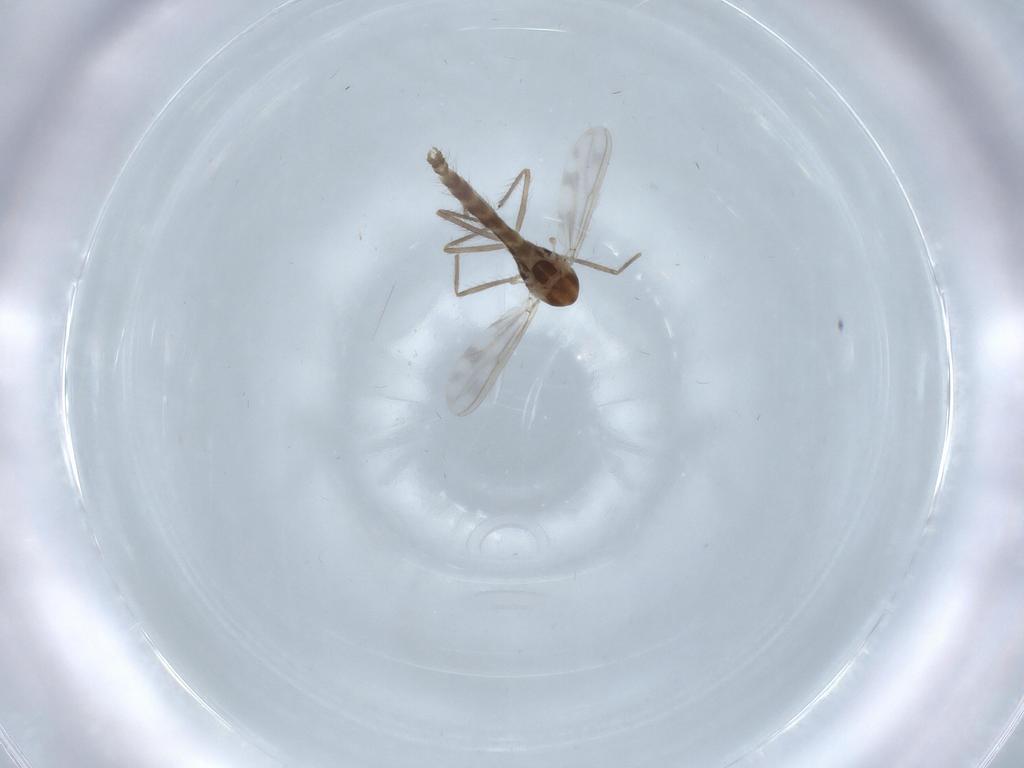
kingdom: Animalia
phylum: Arthropoda
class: Insecta
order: Diptera
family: Chironomidae
